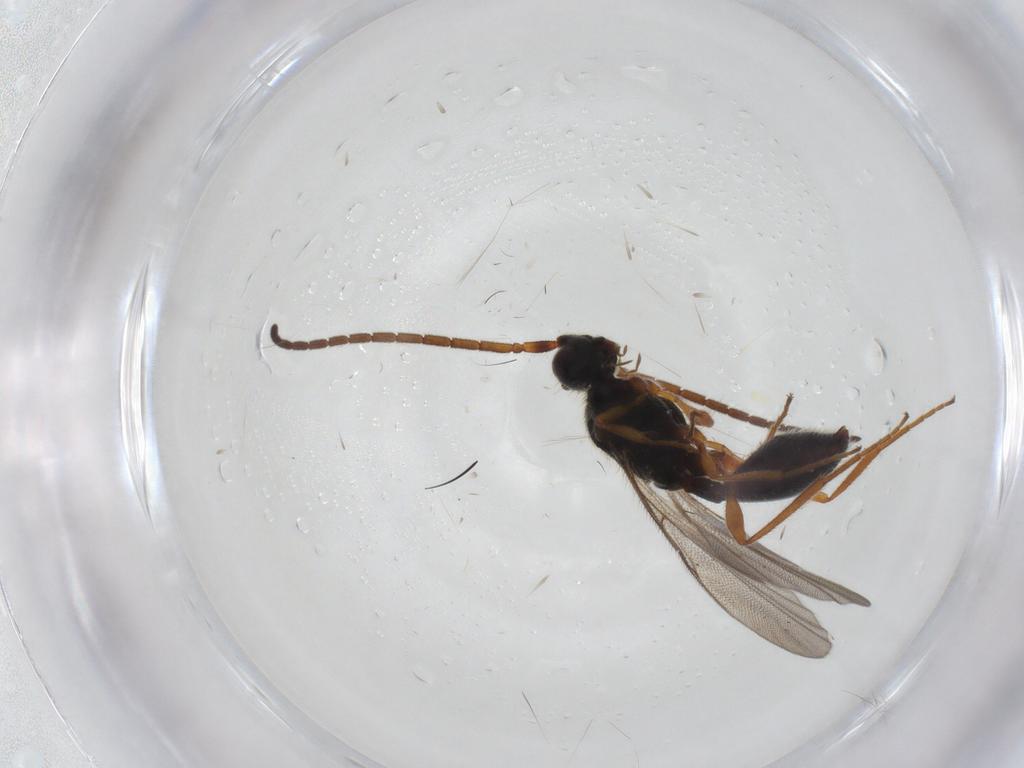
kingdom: Animalia
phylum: Arthropoda
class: Insecta
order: Hymenoptera
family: Diapriidae
